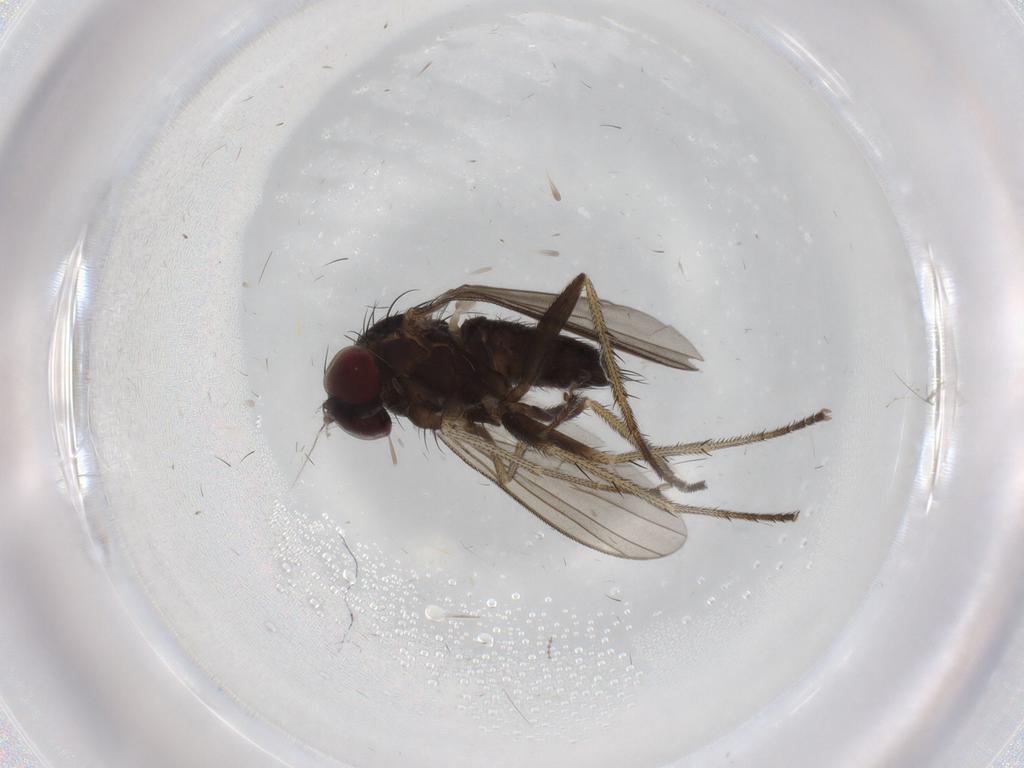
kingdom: Animalia
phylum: Arthropoda
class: Insecta
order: Diptera
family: Dolichopodidae
